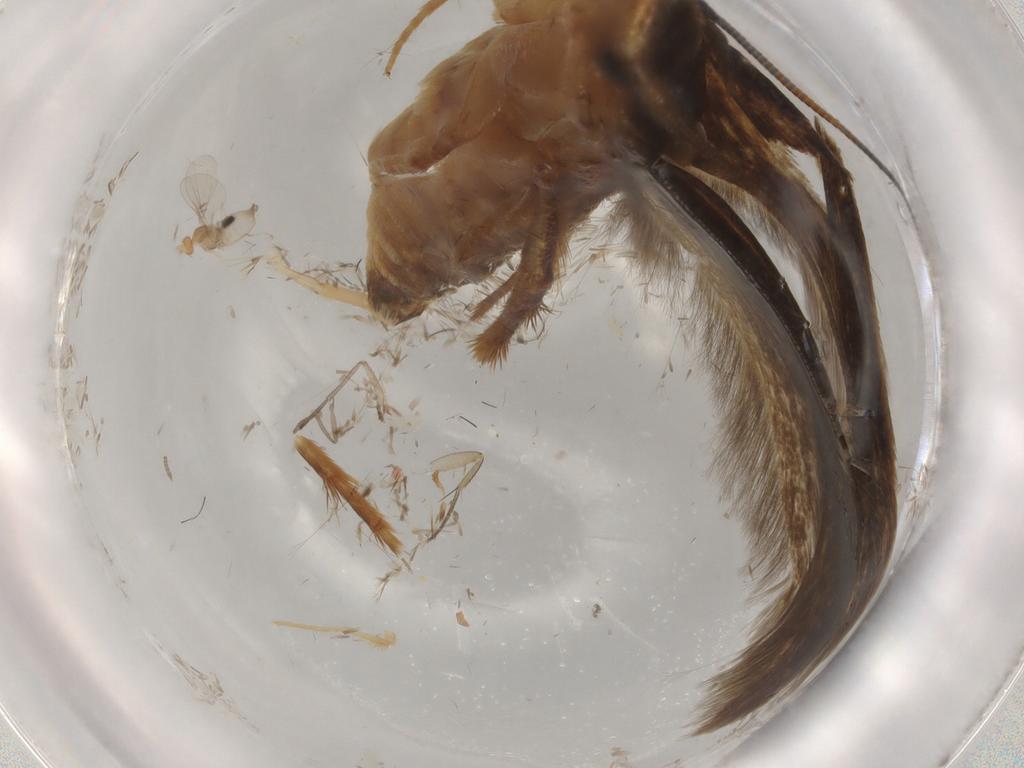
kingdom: Animalia
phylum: Arthropoda
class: Insecta
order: Lepidoptera
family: Tineidae
